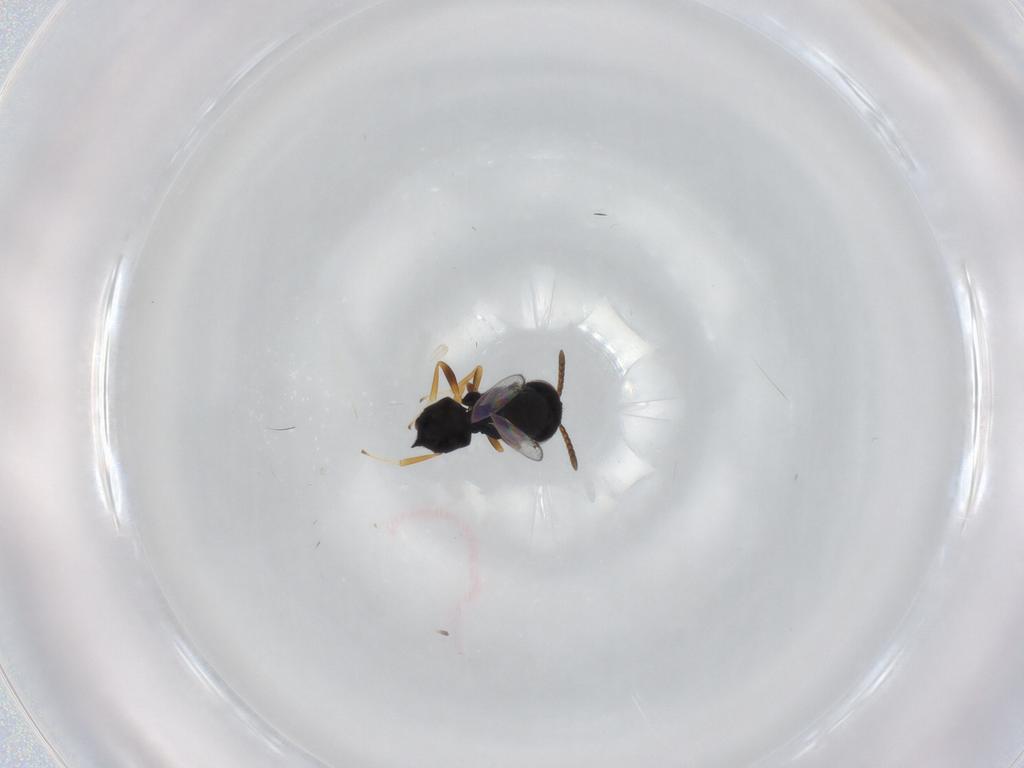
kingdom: Animalia
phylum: Arthropoda
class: Insecta
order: Hymenoptera
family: Pteromalidae
